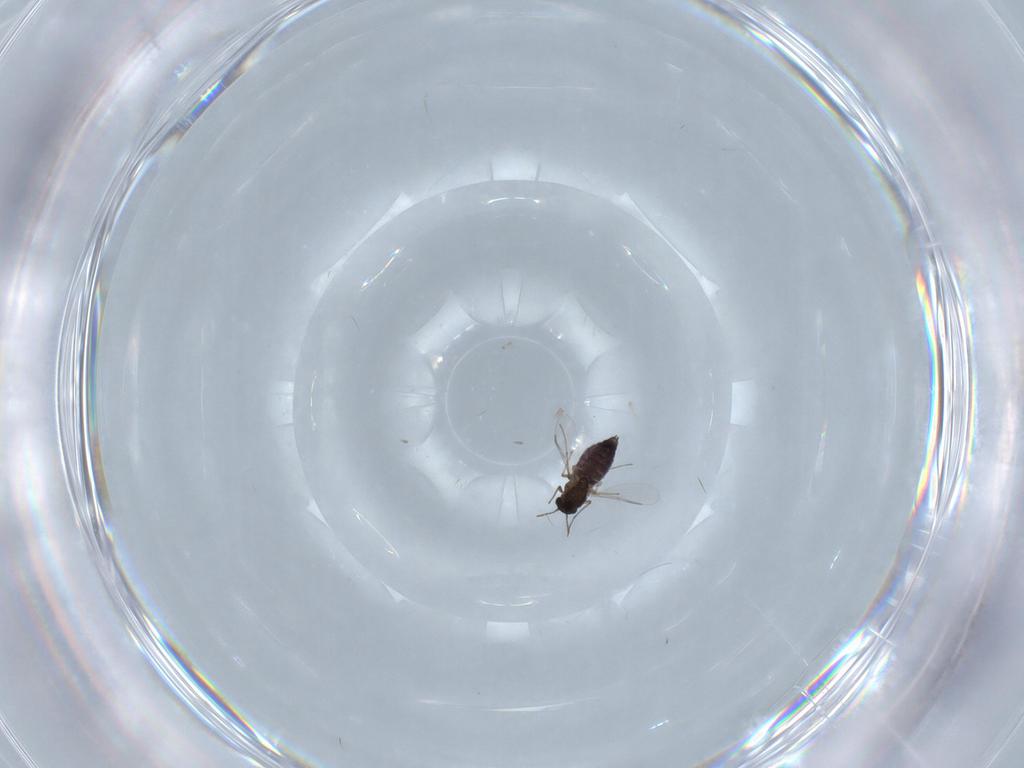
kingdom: Animalia
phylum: Arthropoda
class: Insecta
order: Diptera
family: Chironomidae
